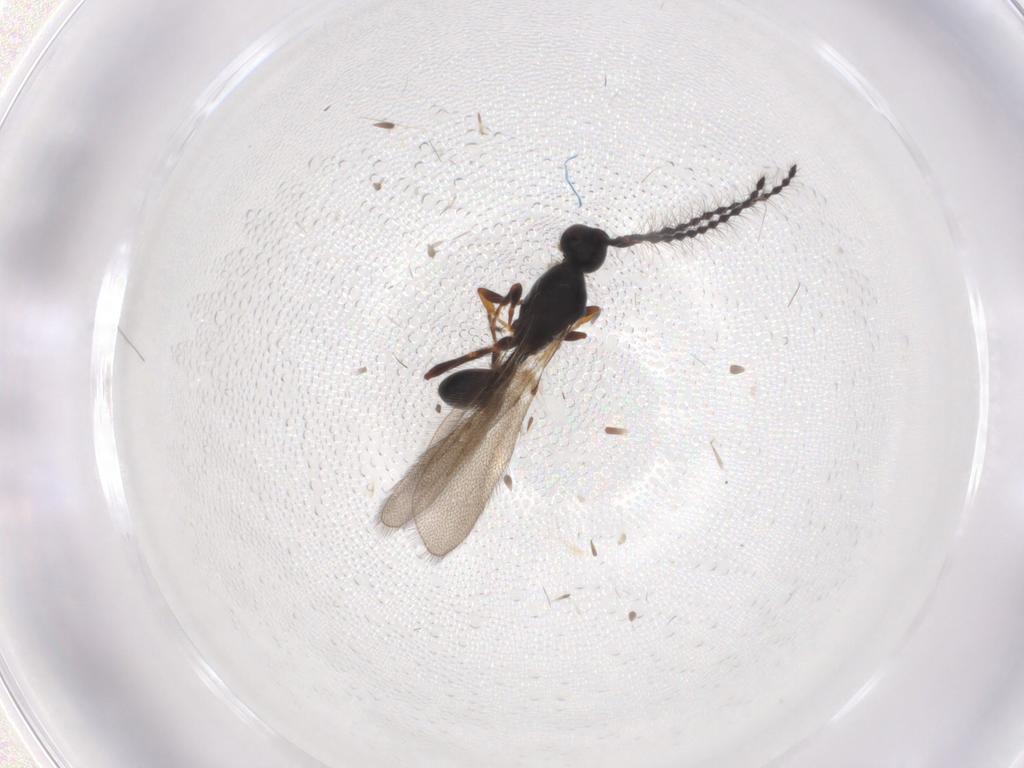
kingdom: Animalia
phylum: Arthropoda
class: Insecta
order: Hymenoptera
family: Diapriidae
